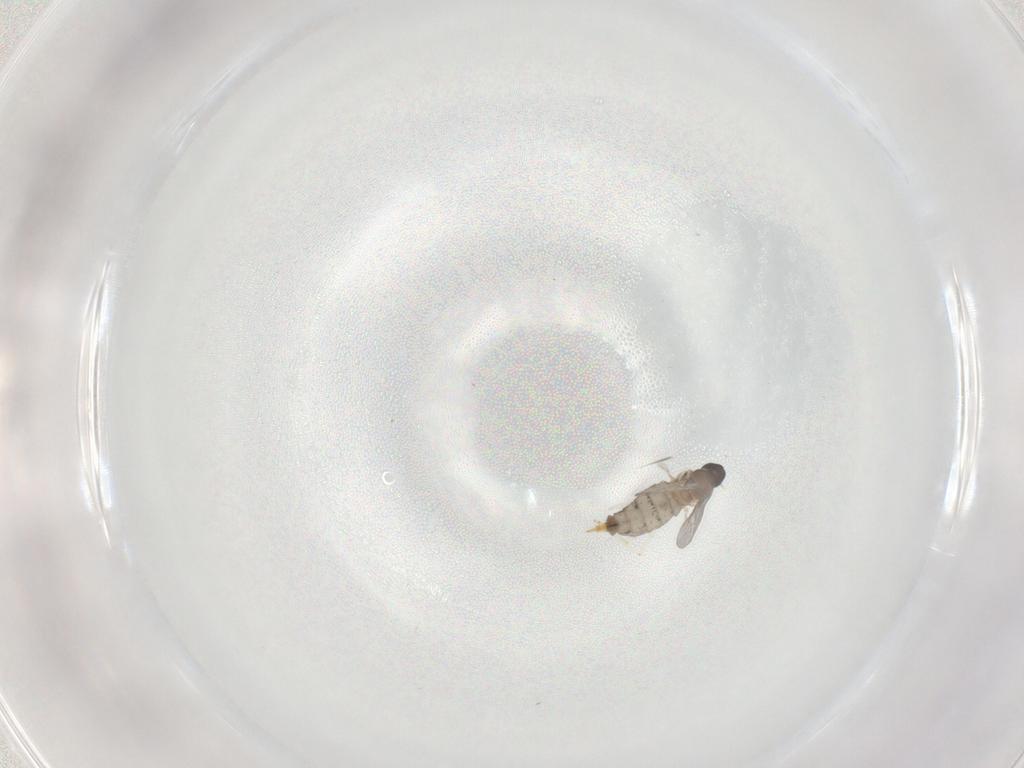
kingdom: Animalia
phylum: Arthropoda
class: Insecta
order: Diptera
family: Cecidomyiidae
